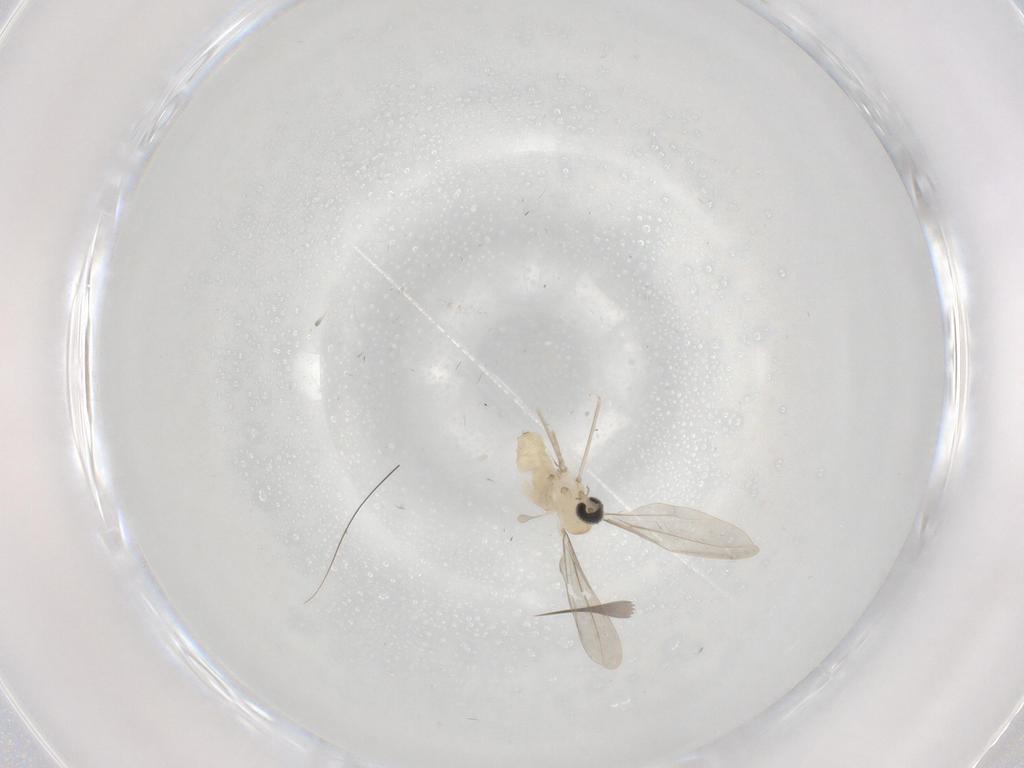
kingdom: Animalia
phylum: Arthropoda
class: Insecta
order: Diptera
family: Cecidomyiidae
